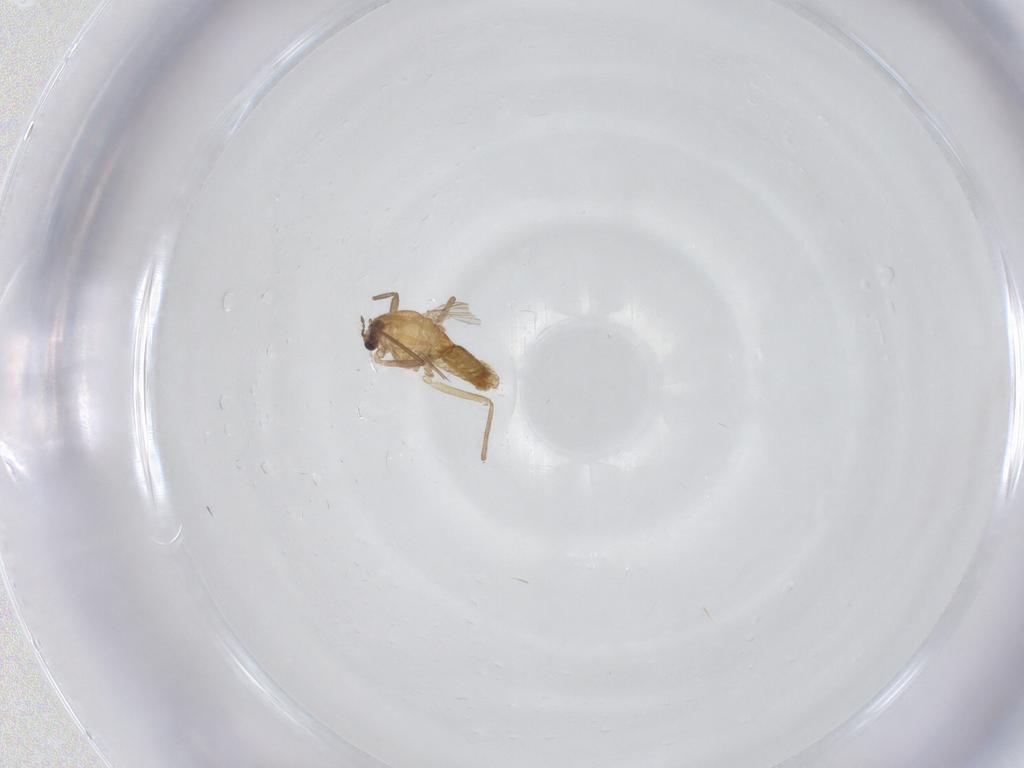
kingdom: Animalia
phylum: Arthropoda
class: Insecta
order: Diptera
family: Chironomidae
